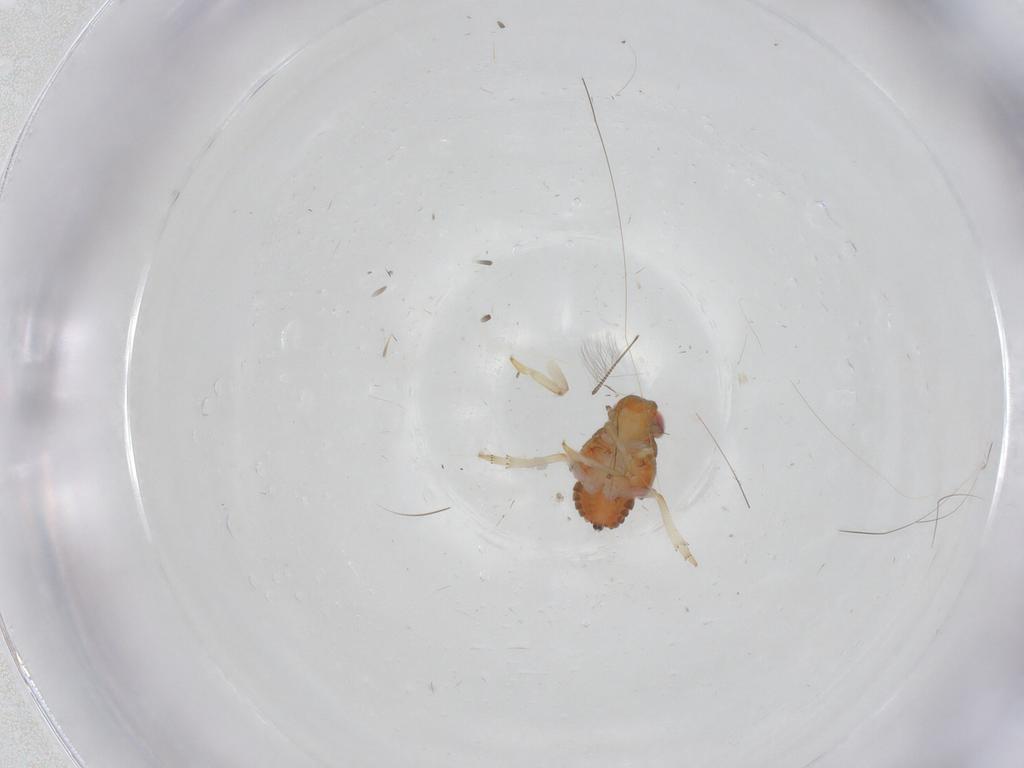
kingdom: Animalia
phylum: Arthropoda
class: Insecta
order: Hemiptera
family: Issidae
